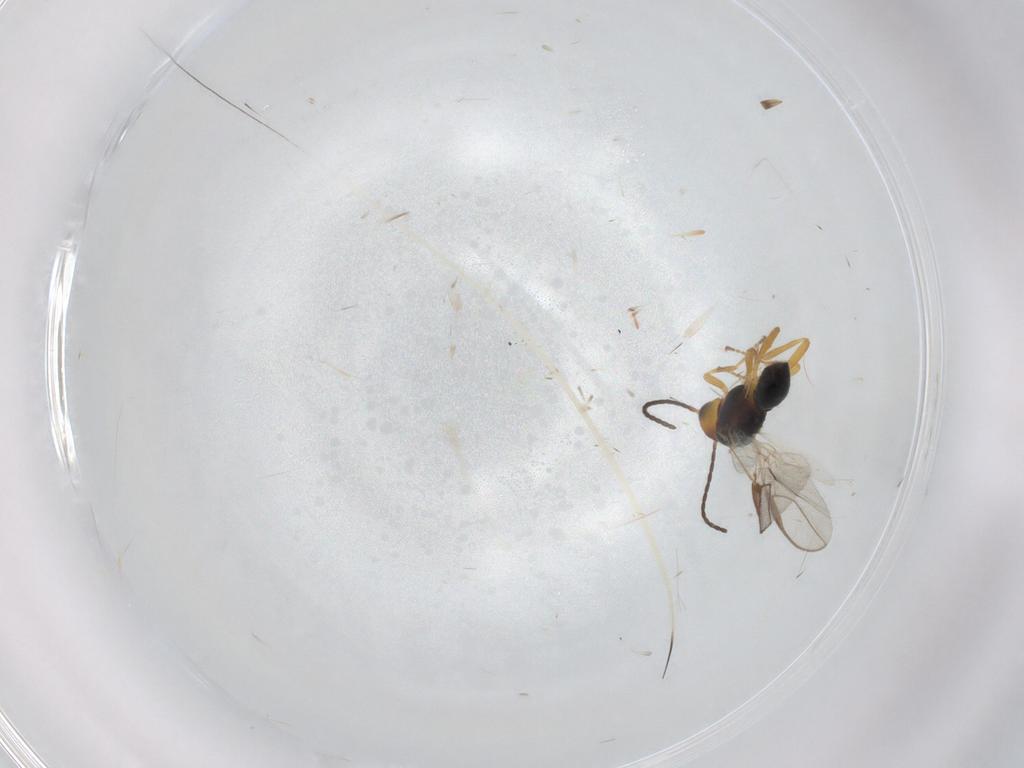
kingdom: Animalia
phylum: Arthropoda
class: Insecta
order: Hymenoptera
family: Braconidae
